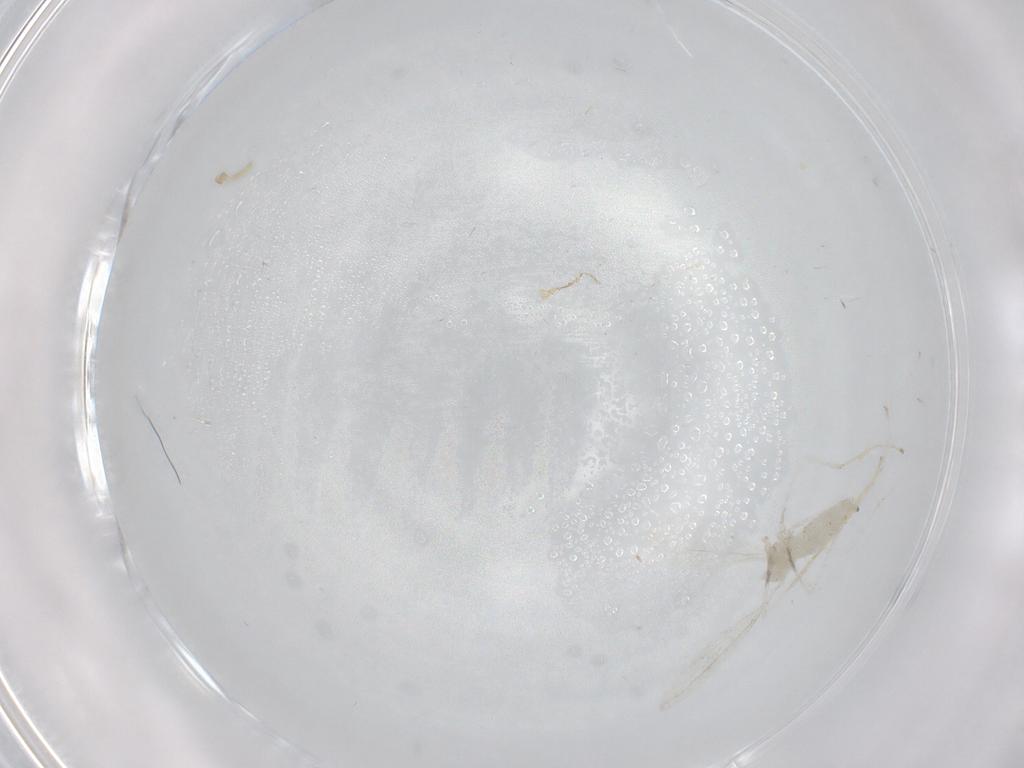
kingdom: Animalia
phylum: Arthropoda
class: Insecta
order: Diptera
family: Cecidomyiidae
